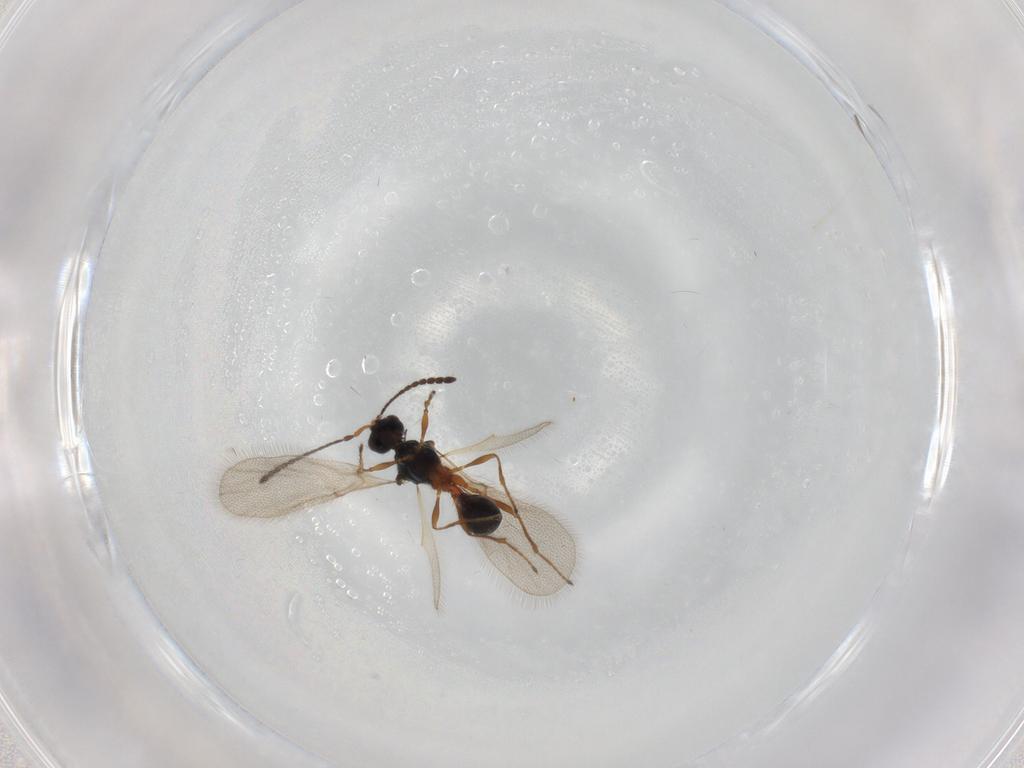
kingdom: Animalia
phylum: Arthropoda
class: Insecta
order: Hymenoptera
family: Diapriidae
